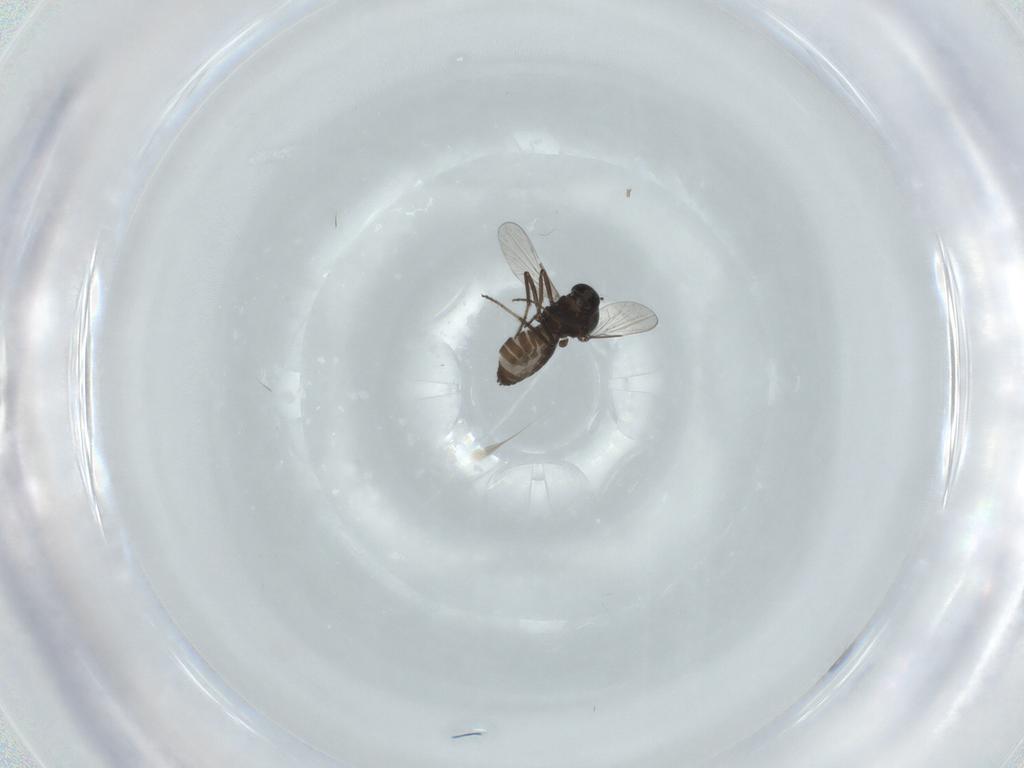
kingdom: Animalia
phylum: Arthropoda
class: Insecta
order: Diptera
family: Ceratopogonidae
